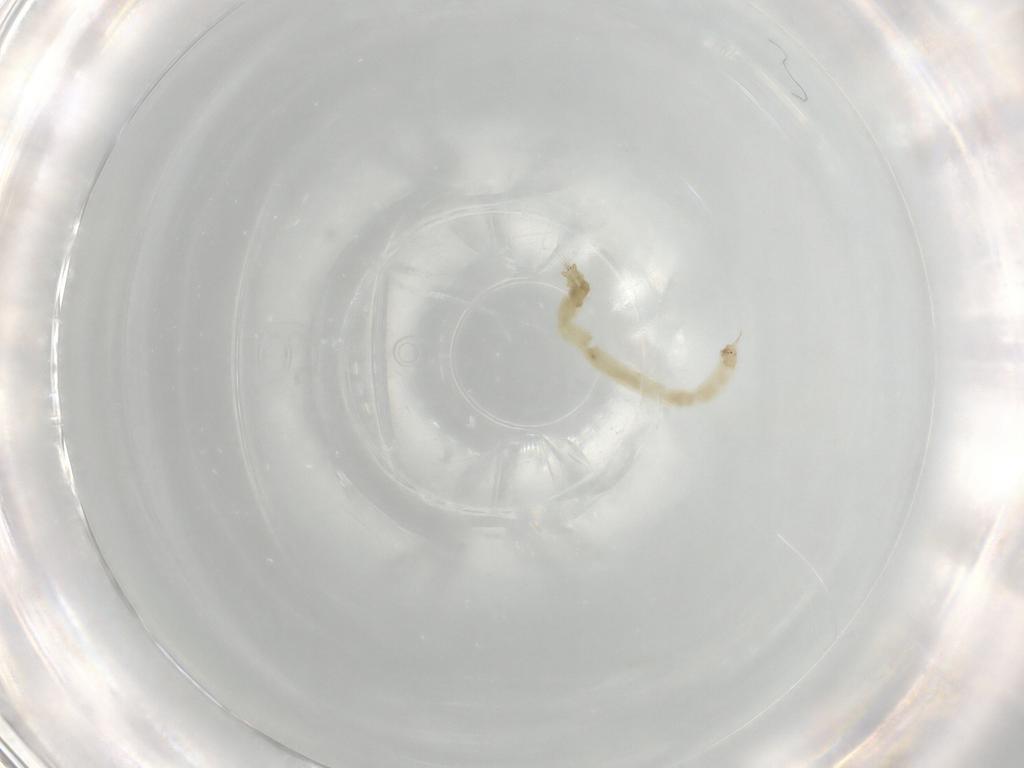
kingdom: Animalia
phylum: Arthropoda
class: Insecta
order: Diptera
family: Chironomidae
